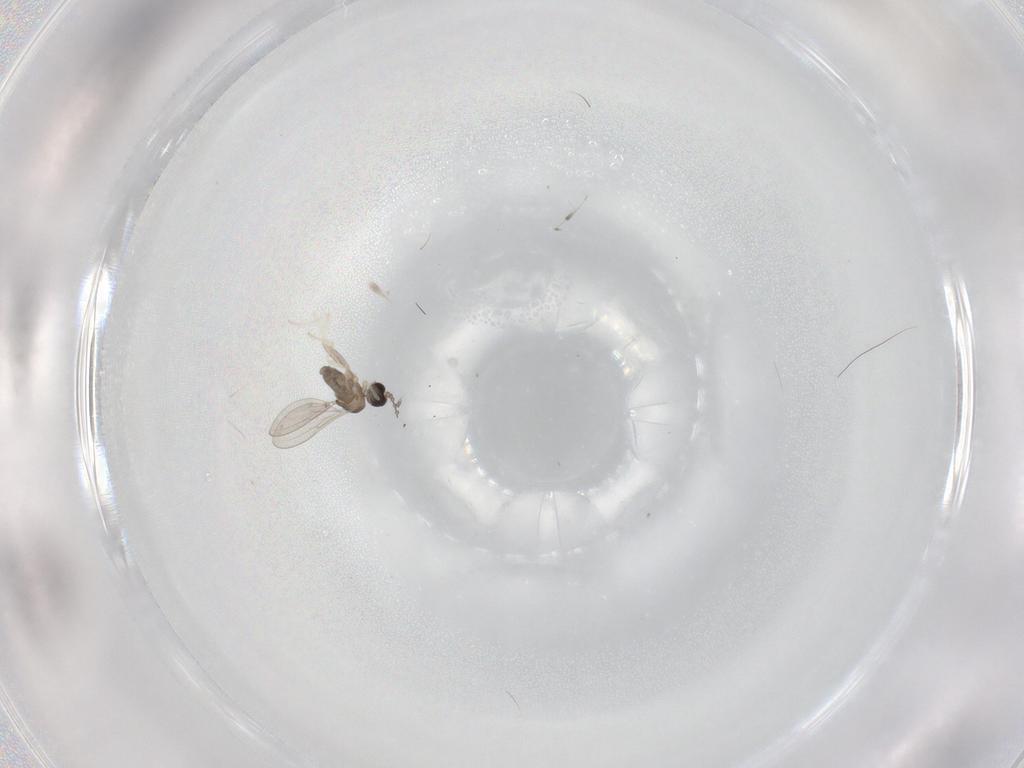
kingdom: Animalia
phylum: Arthropoda
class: Insecta
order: Diptera
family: Cecidomyiidae
